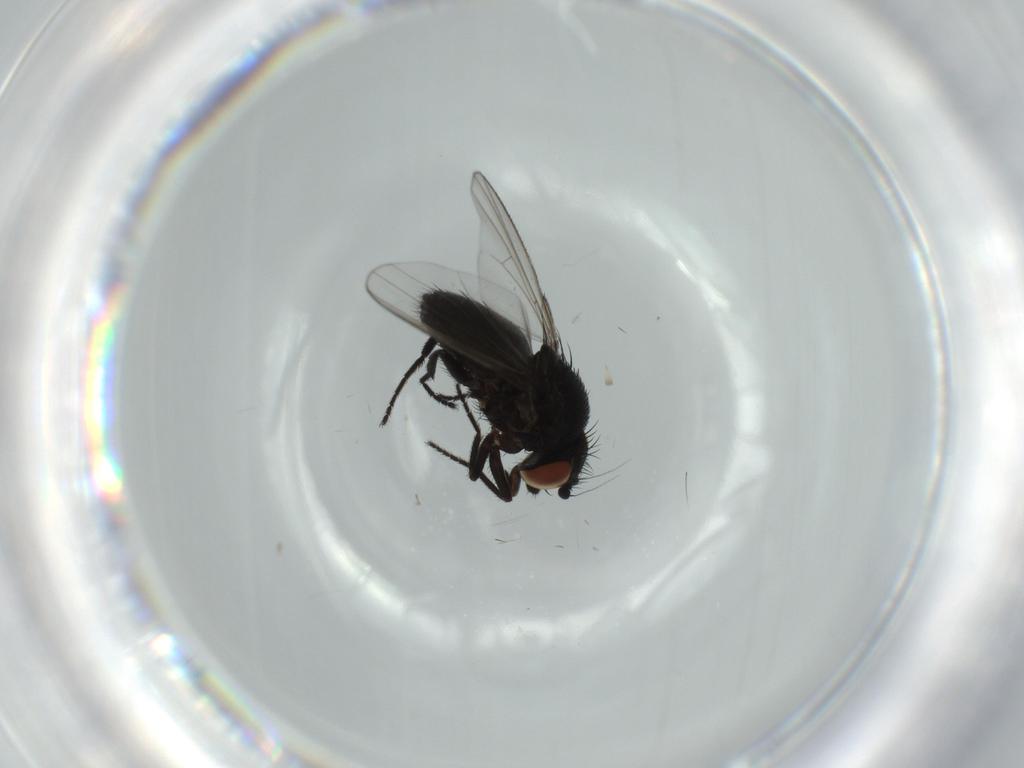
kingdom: Animalia
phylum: Arthropoda
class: Insecta
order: Diptera
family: Milichiidae
